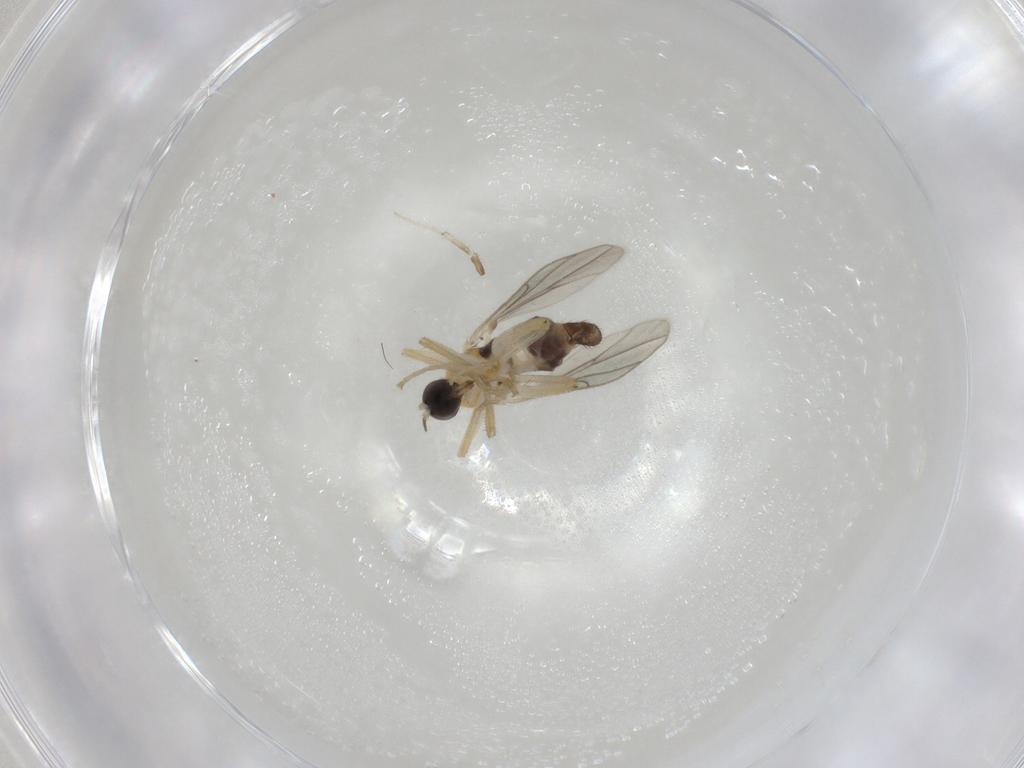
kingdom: Animalia
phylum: Arthropoda
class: Insecta
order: Diptera
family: Hybotidae
